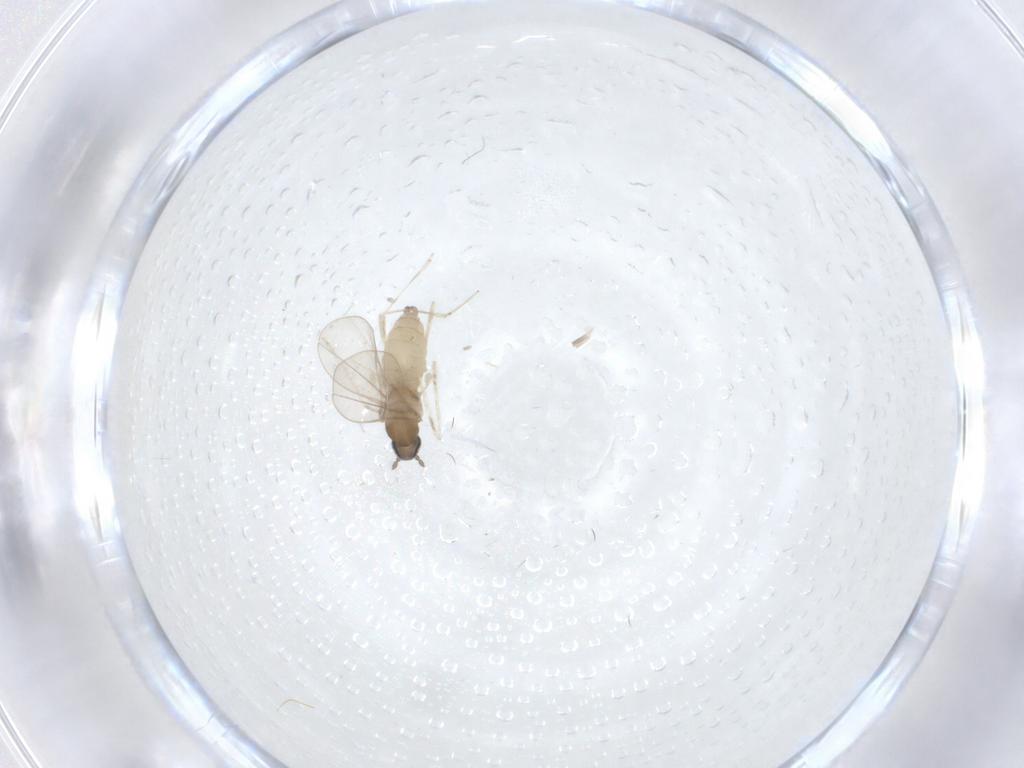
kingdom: Animalia
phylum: Arthropoda
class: Insecta
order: Diptera
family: Cecidomyiidae
